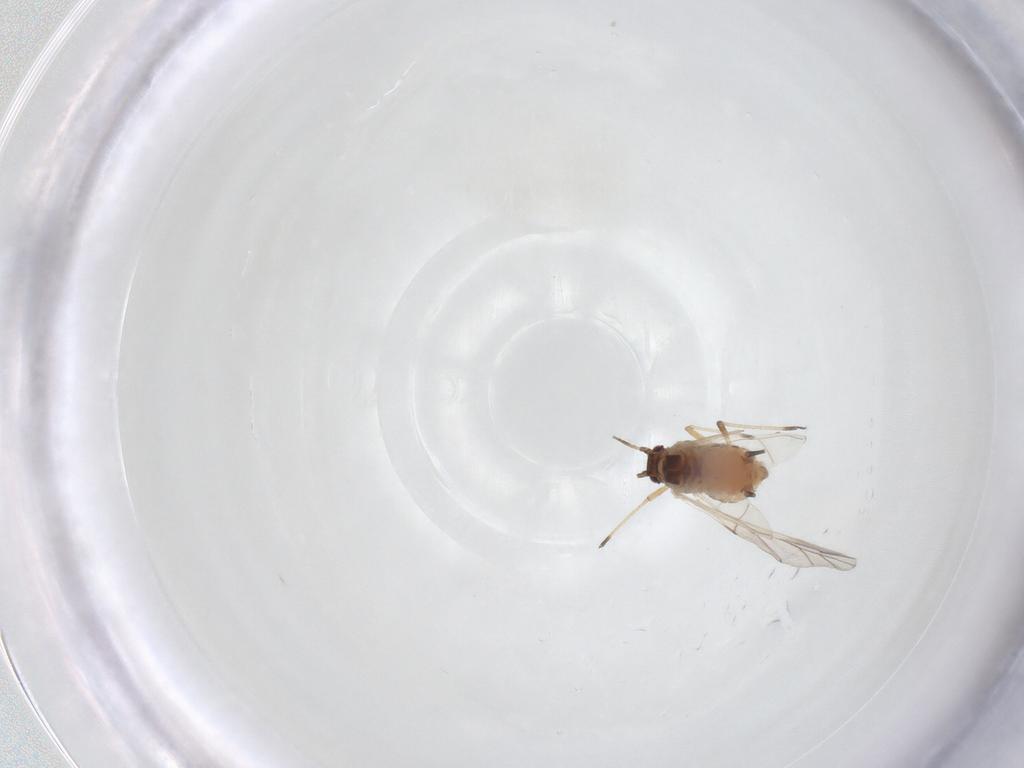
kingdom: Animalia
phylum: Arthropoda
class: Insecta
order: Hemiptera
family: Aphididae
